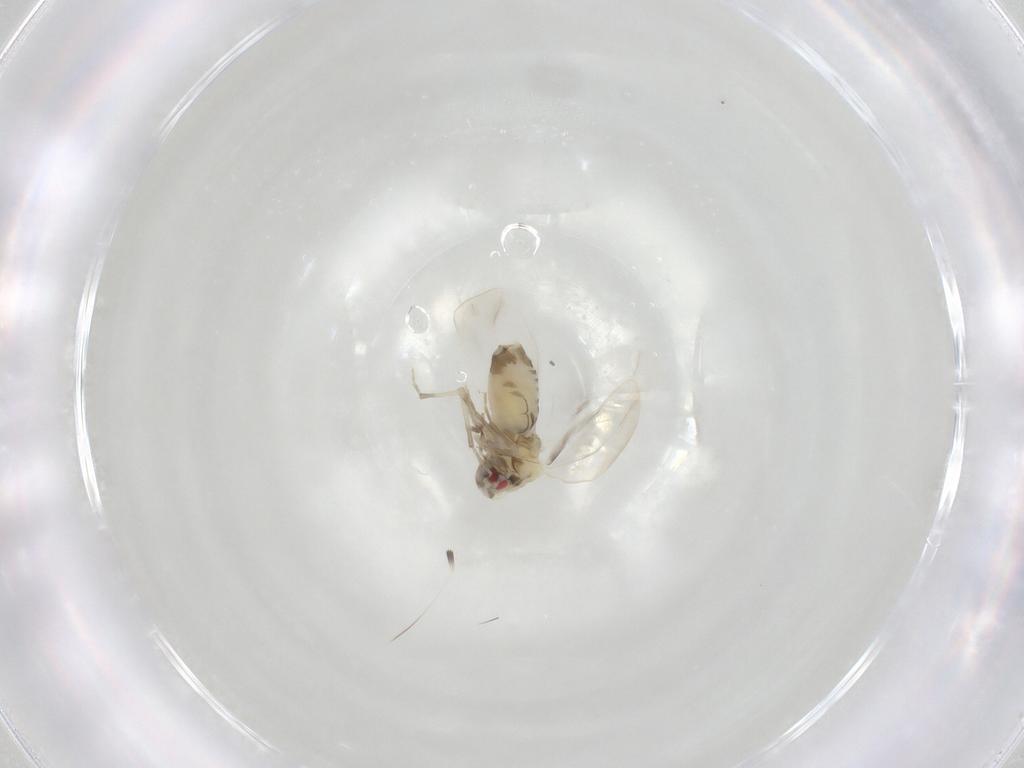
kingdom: Animalia
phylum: Arthropoda
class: Insecta
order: Hemiptera
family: Aleyrodidae
